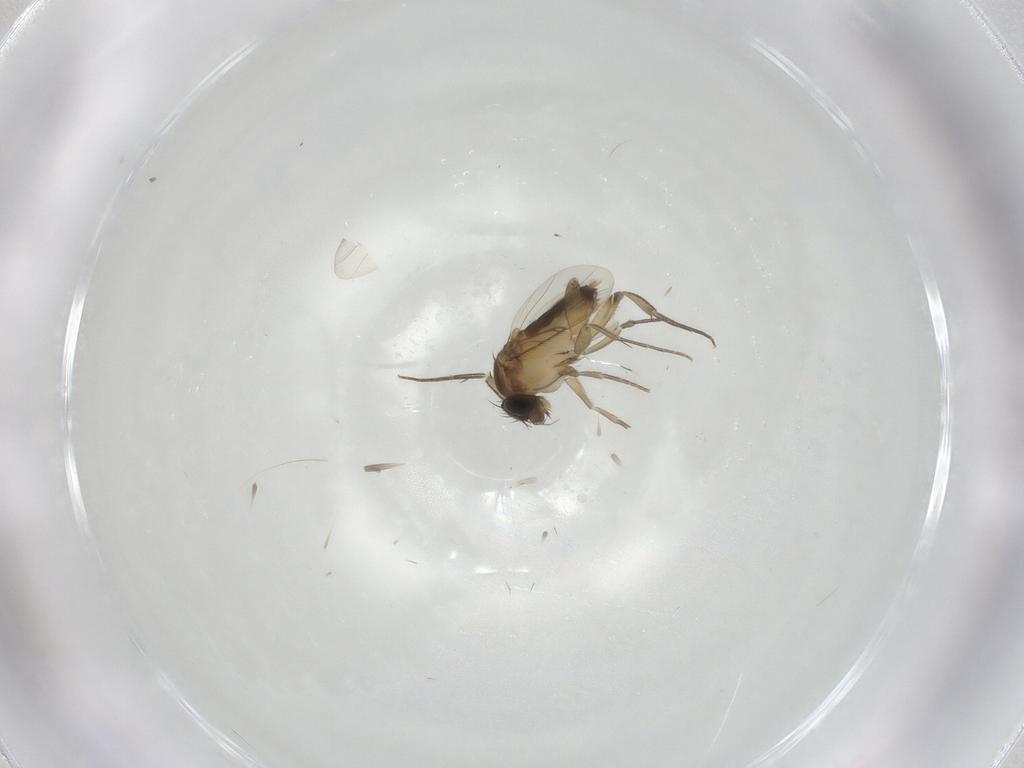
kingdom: Animalia
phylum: Arthropoda
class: Insecta
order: Diptera
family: Phoridae
